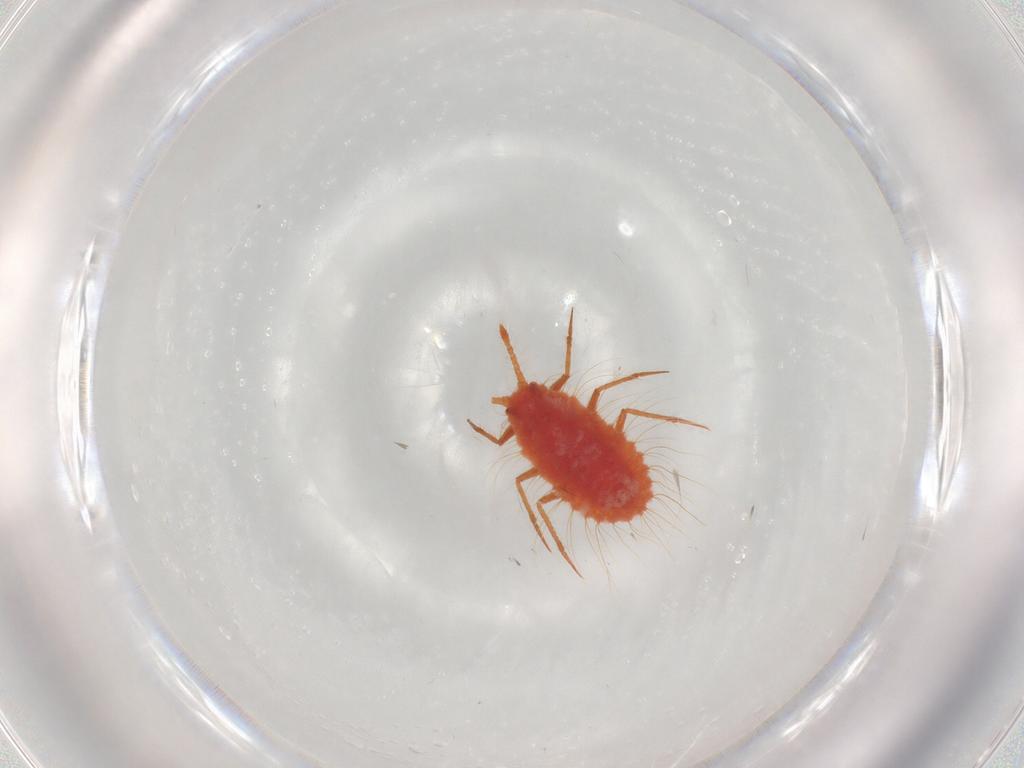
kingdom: Animalia
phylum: Arthropoda
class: Insecta
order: Hemiptera
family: Monophlebidae
